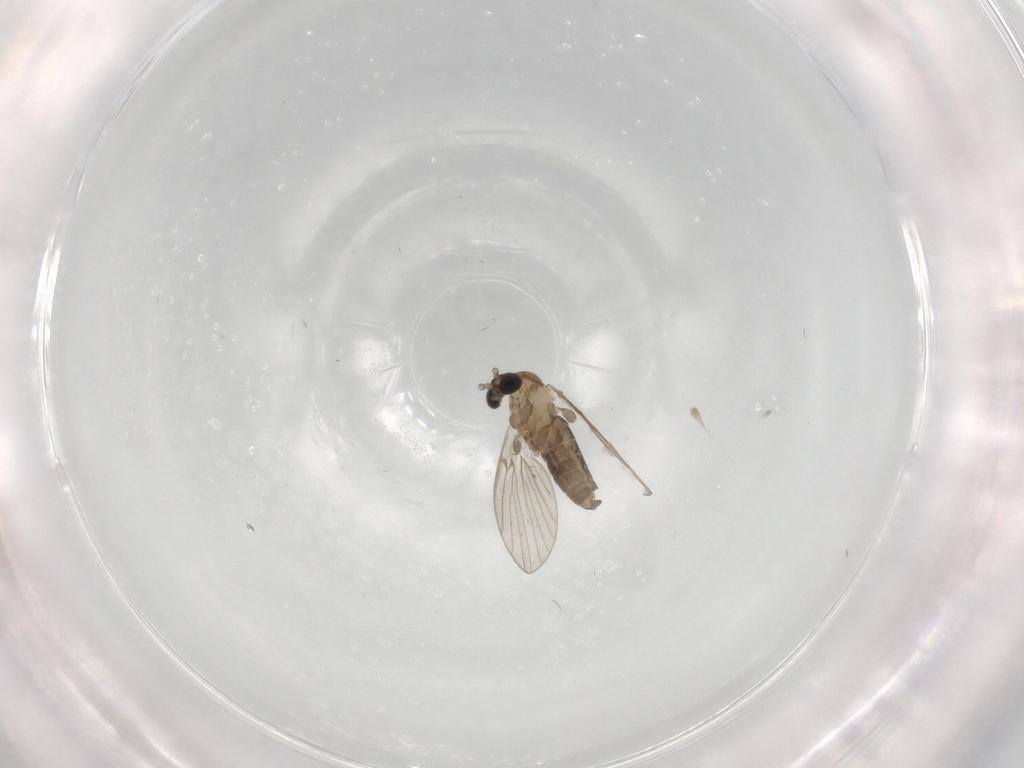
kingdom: Animalia
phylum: Arthropoda
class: Insecta
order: Diptera
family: Psychodidae
